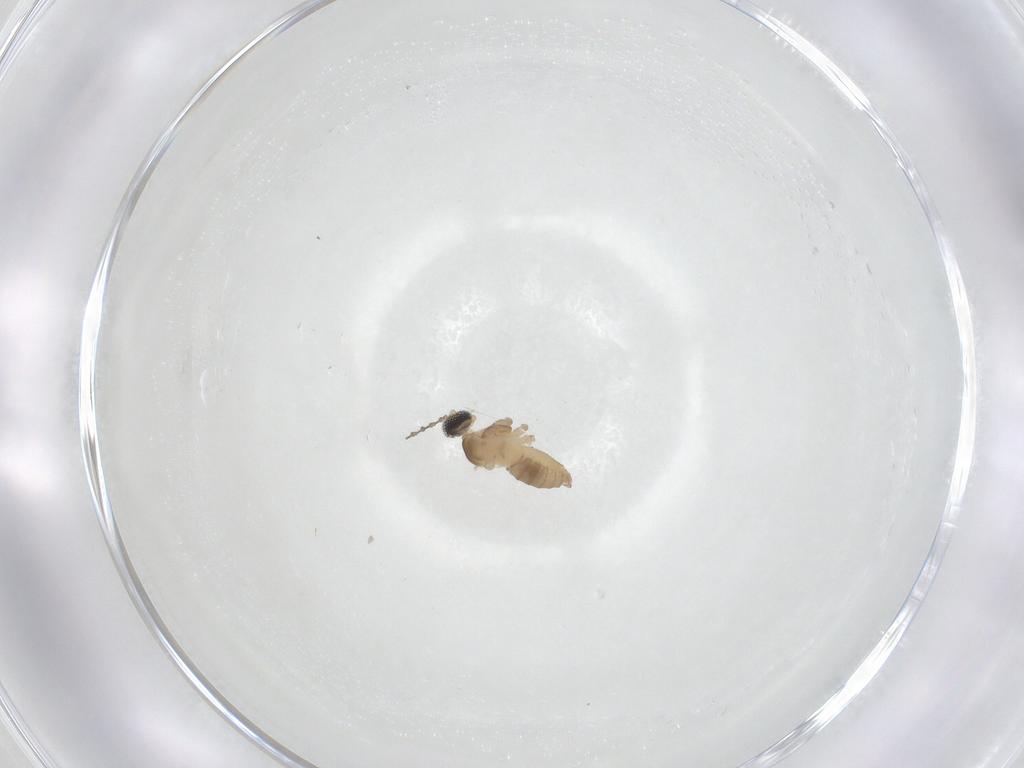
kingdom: Animalia
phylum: Arthropoda
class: Insecta
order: Diptera
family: Cecidomyiidae
